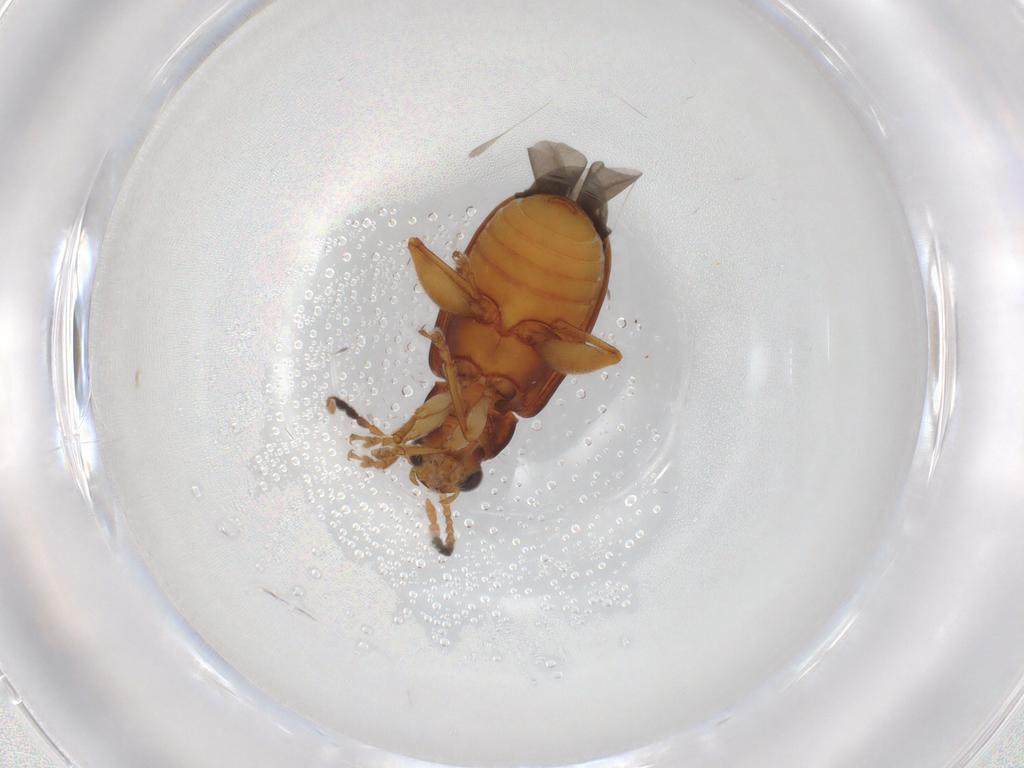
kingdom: Animalia
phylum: Arthropoda
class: Insecta
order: Coleoptera
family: Chrysomelidae
